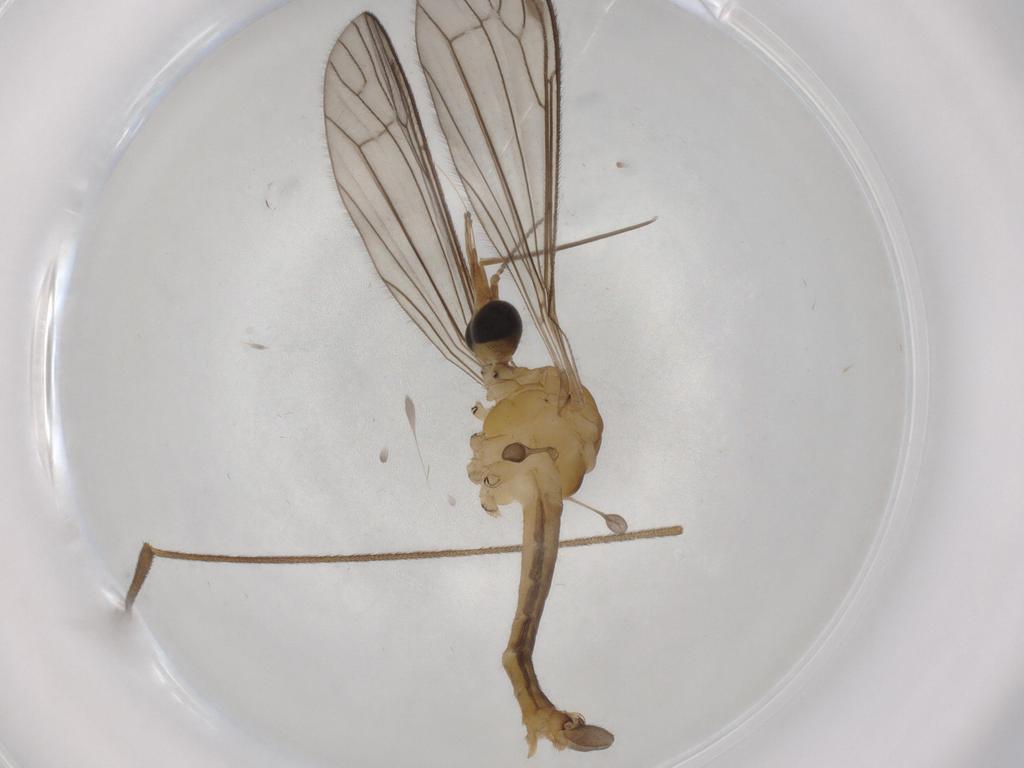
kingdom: Animalia
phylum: Arthropoda
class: Insecta
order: Diptera
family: Cecidomyiidae
